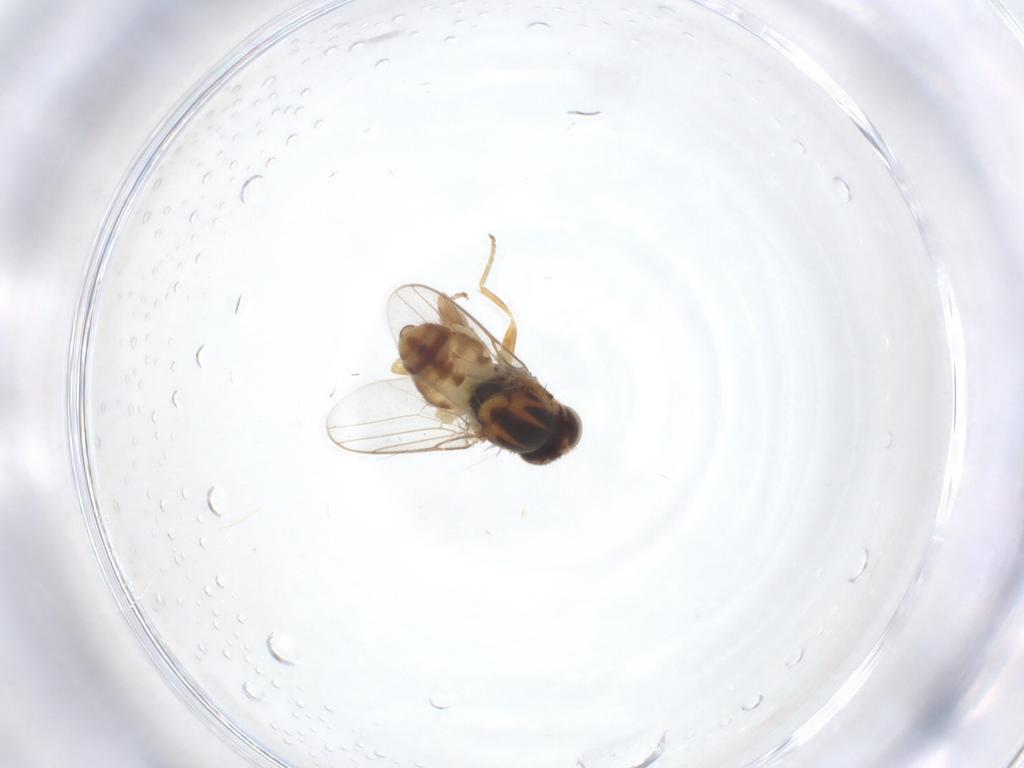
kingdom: Animalia
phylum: Arthropoda
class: Insecta
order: Diptera
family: Chloropidae
